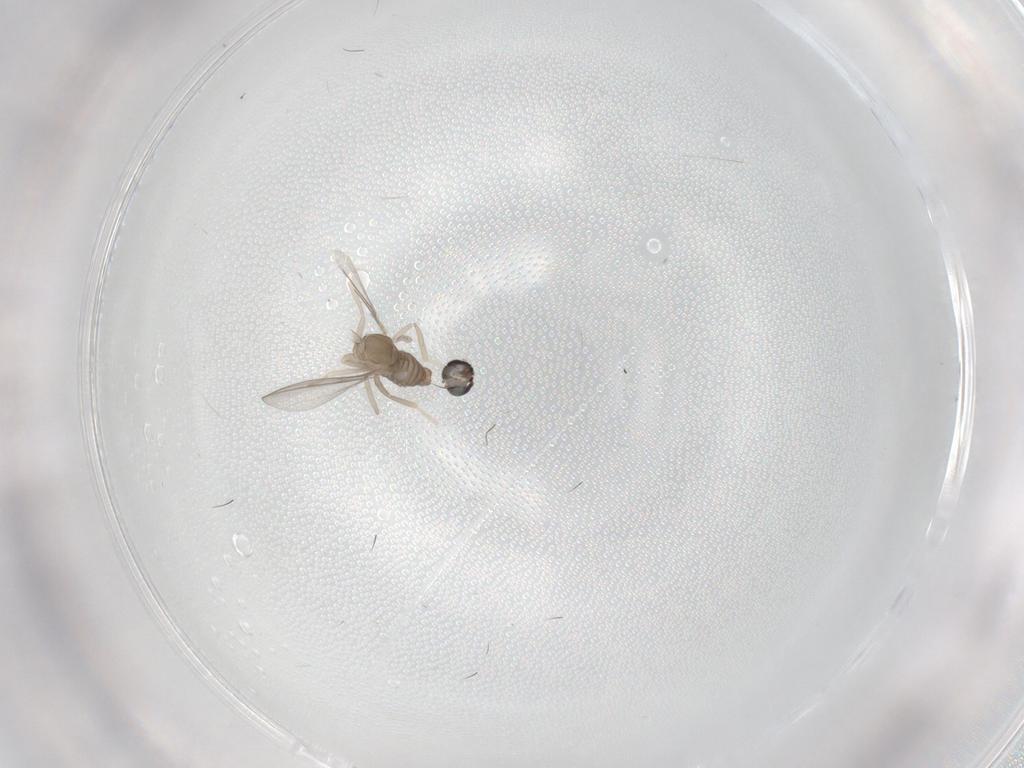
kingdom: Animalia
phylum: Arthropoda
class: Insecta
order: Diptera
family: Cecidomyiidae
